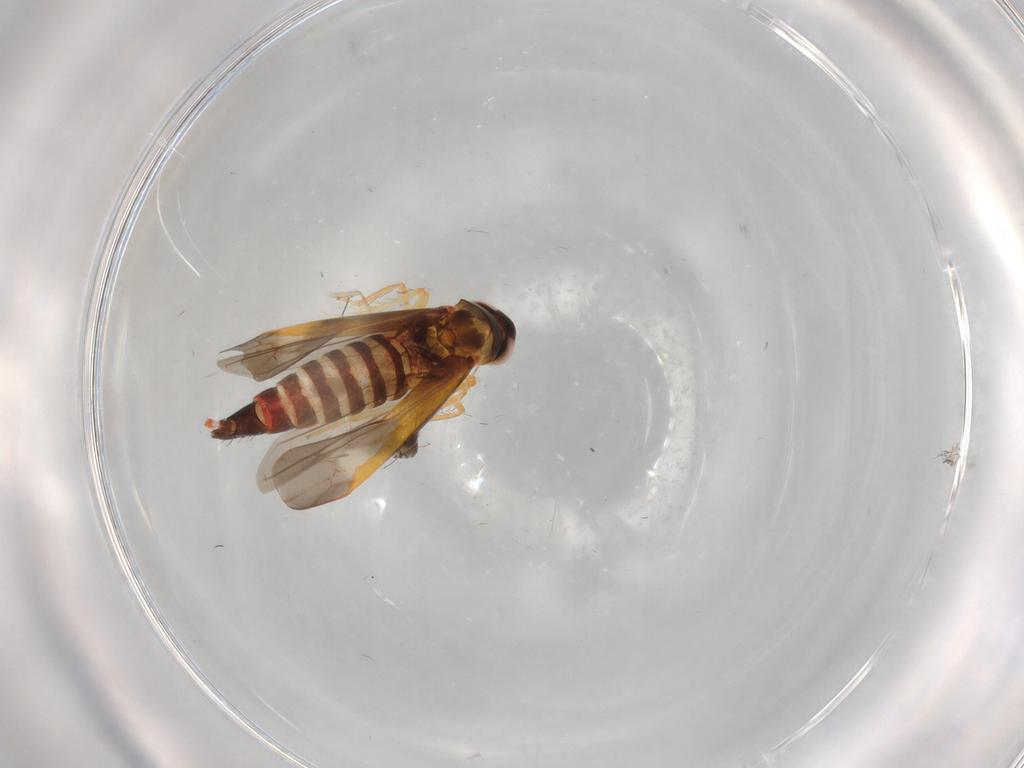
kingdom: Animalia
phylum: Arthropoda
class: Insecta
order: Hemiptera
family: Cicadellidae
